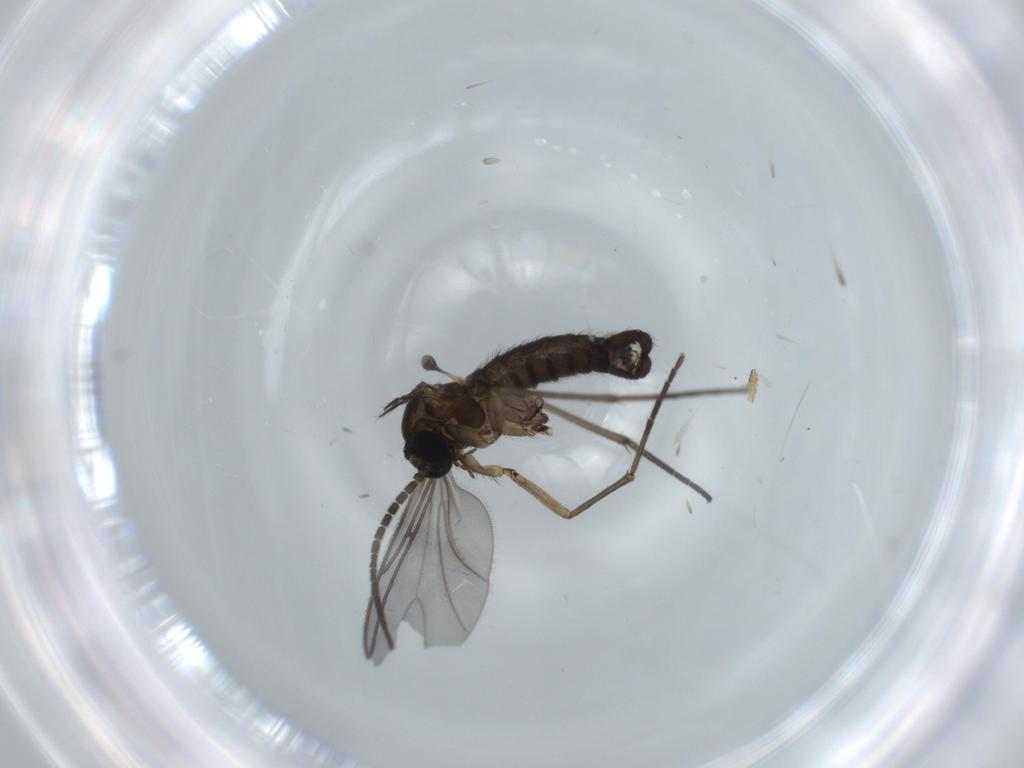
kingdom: Animalia
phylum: Arthropoda
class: Insecta
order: Diptera
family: Sciaridae
